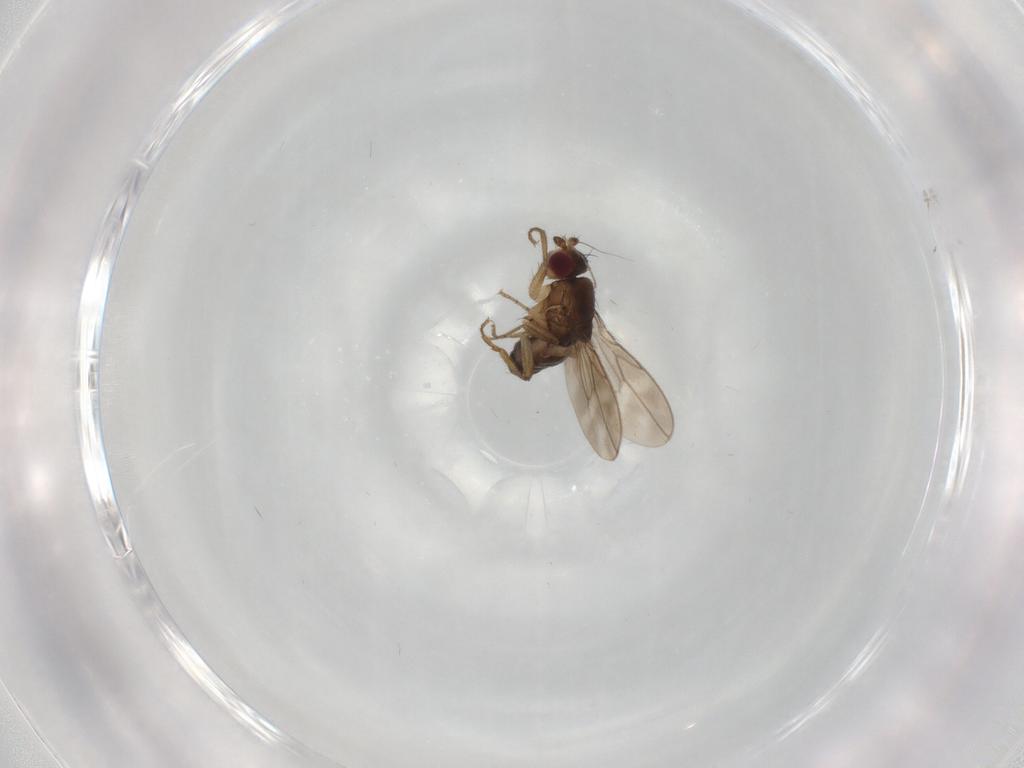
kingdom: Animalia
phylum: Arthropoda
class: Insecta
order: Diptera
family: Sphaeroceridae
